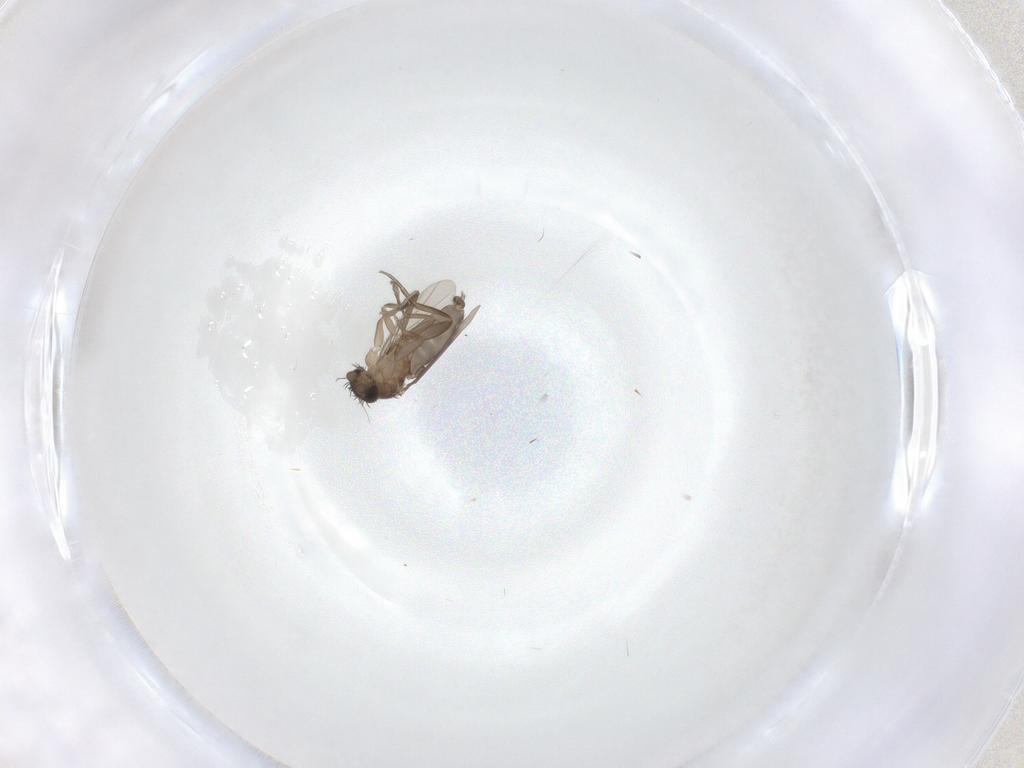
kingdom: Animalia
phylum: Arthropoda
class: Insecta
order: Diptera
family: Phoridae
